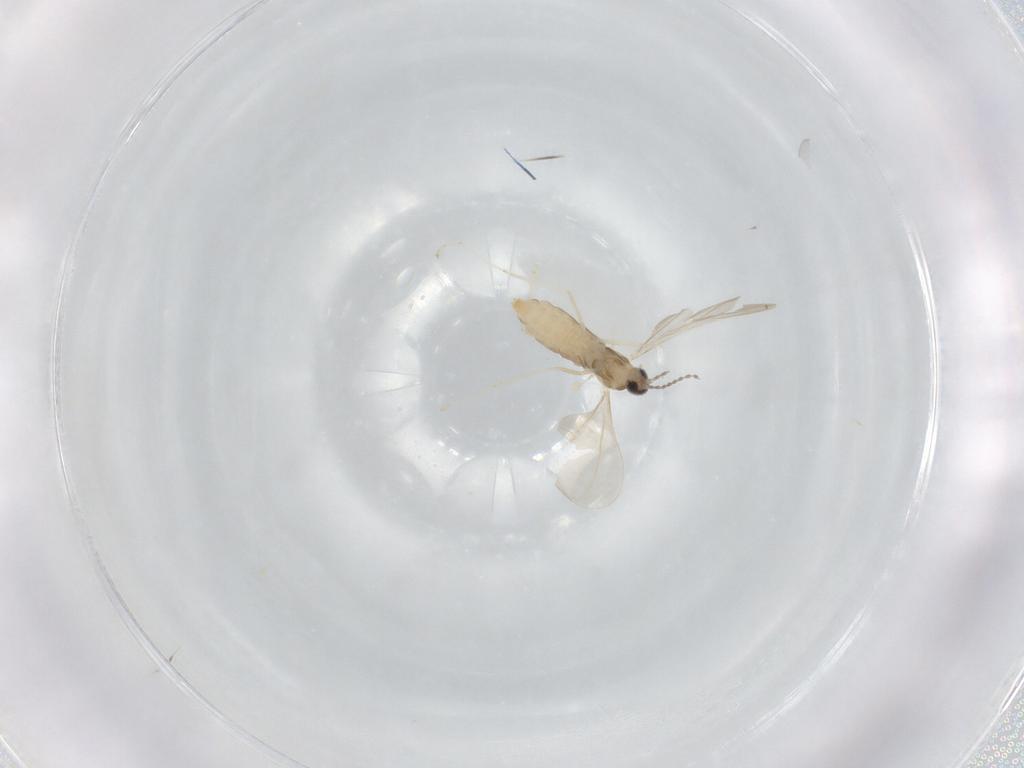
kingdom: Animalia
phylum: Arthropoda
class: Insecta
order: Diptera
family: Cecidomyiidae
